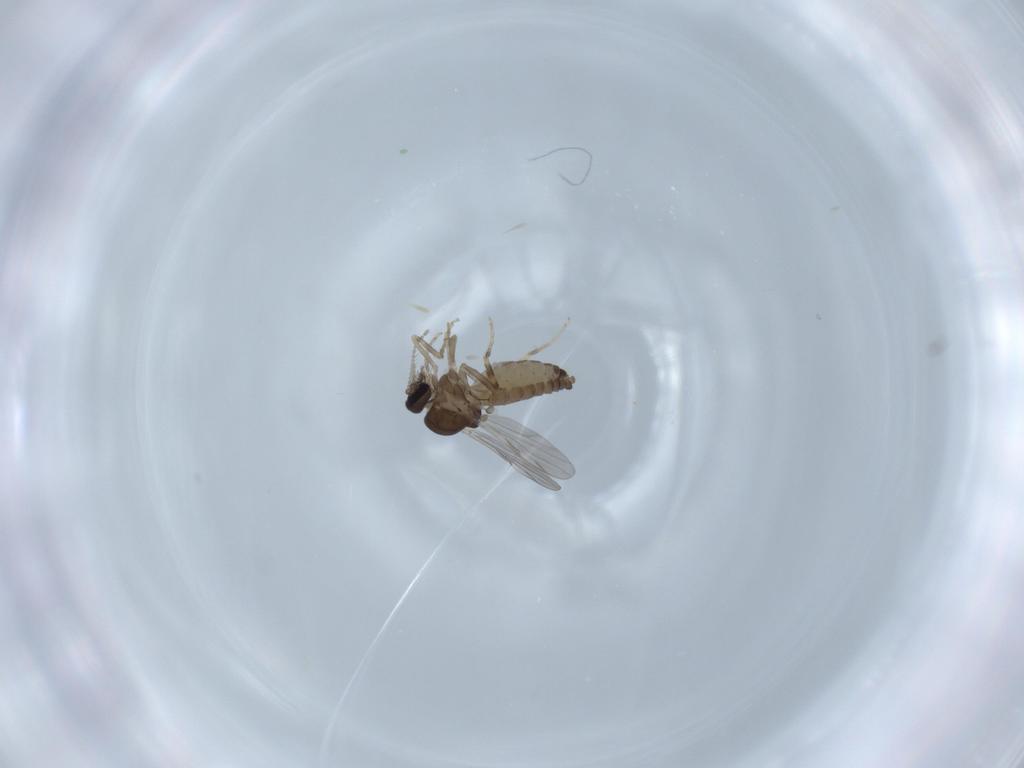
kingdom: Animalia
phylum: Arthropoda
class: Insecta
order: Diptera
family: Ceratopogonidae
